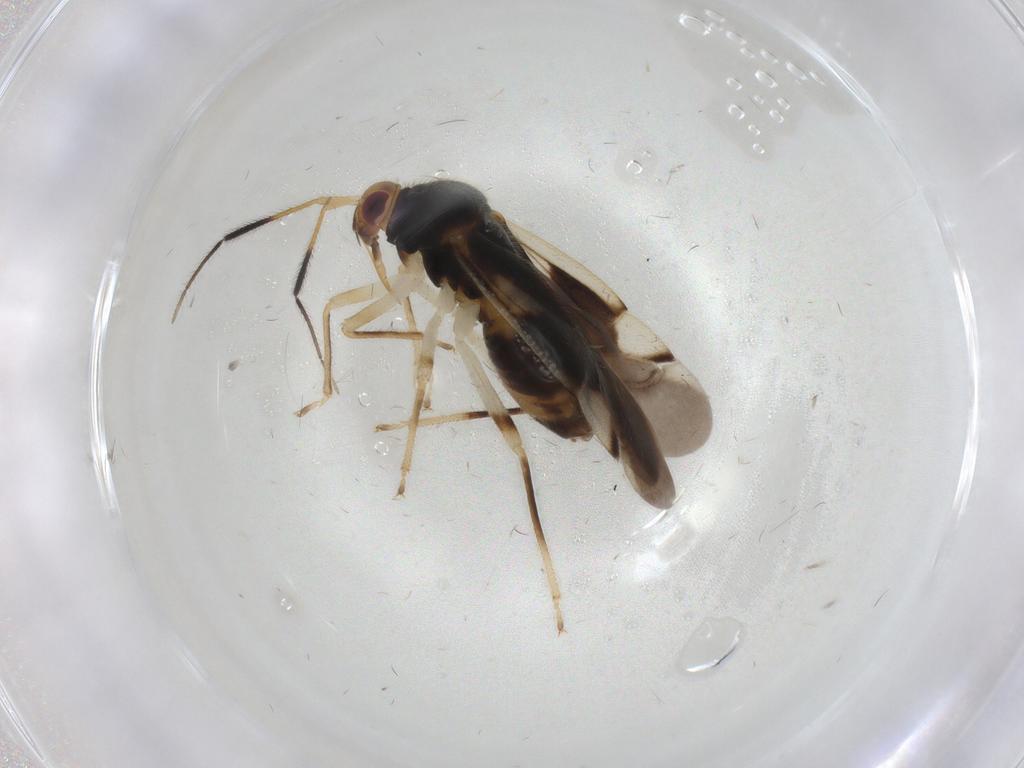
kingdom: Animalia
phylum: Arthropoda
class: Insecta
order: Hemiptera
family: Miridae
